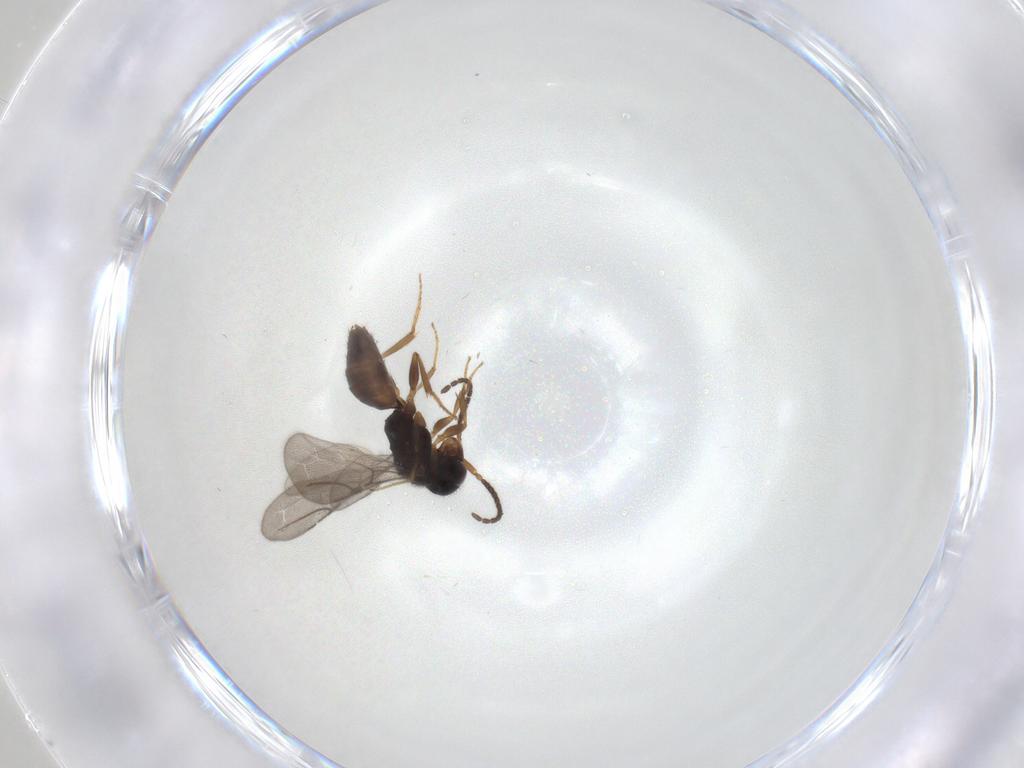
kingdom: Animalia
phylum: Arthropoda
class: Insecta
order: Hymenoptera
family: Bethylidae
